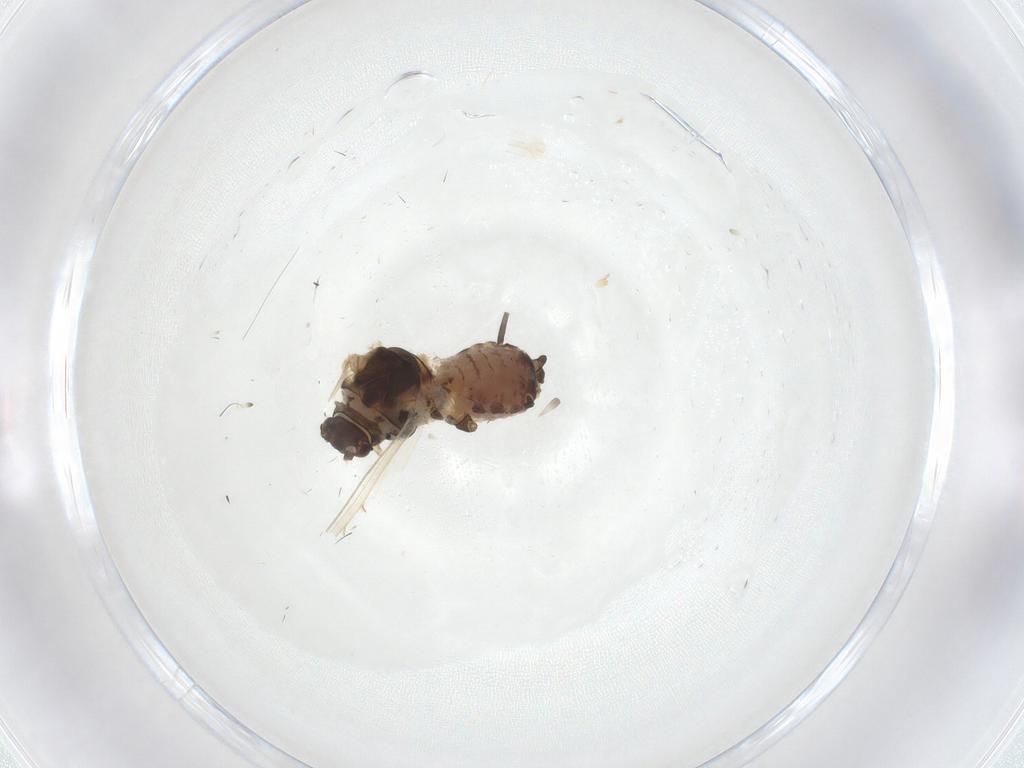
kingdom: Animalia
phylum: Arthropoda
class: Insecta
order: Hemiptera
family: Aphididae
